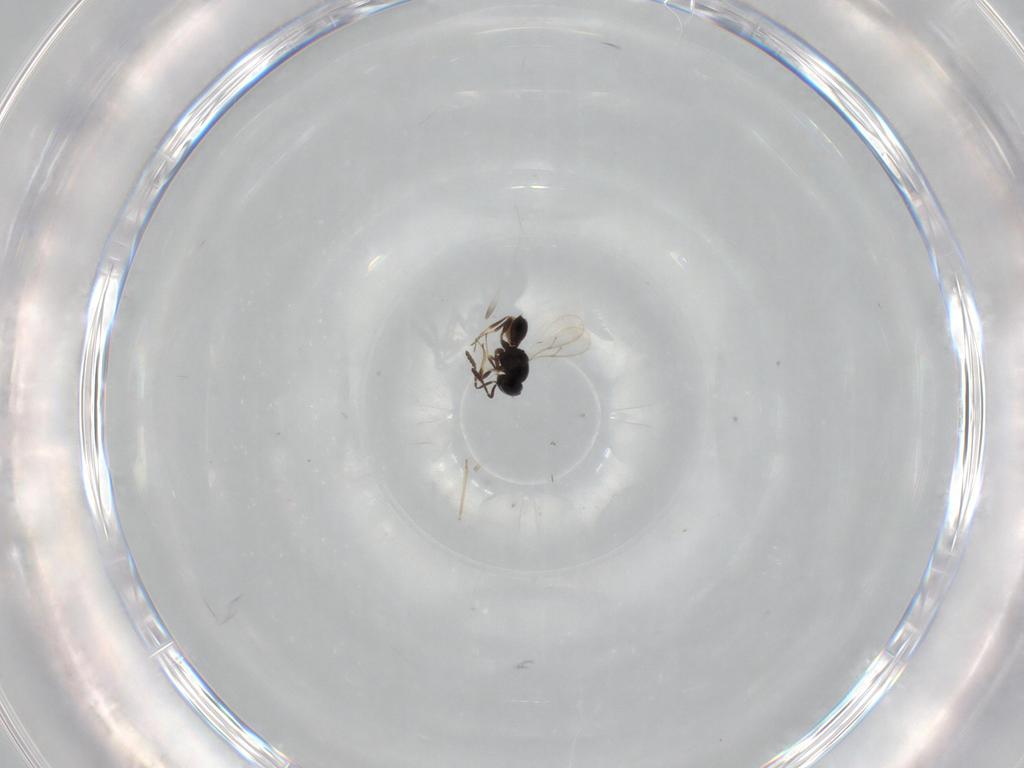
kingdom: Animalia
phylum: Arthropoda
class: Insecta
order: Hymenoptera
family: Scelionidae
